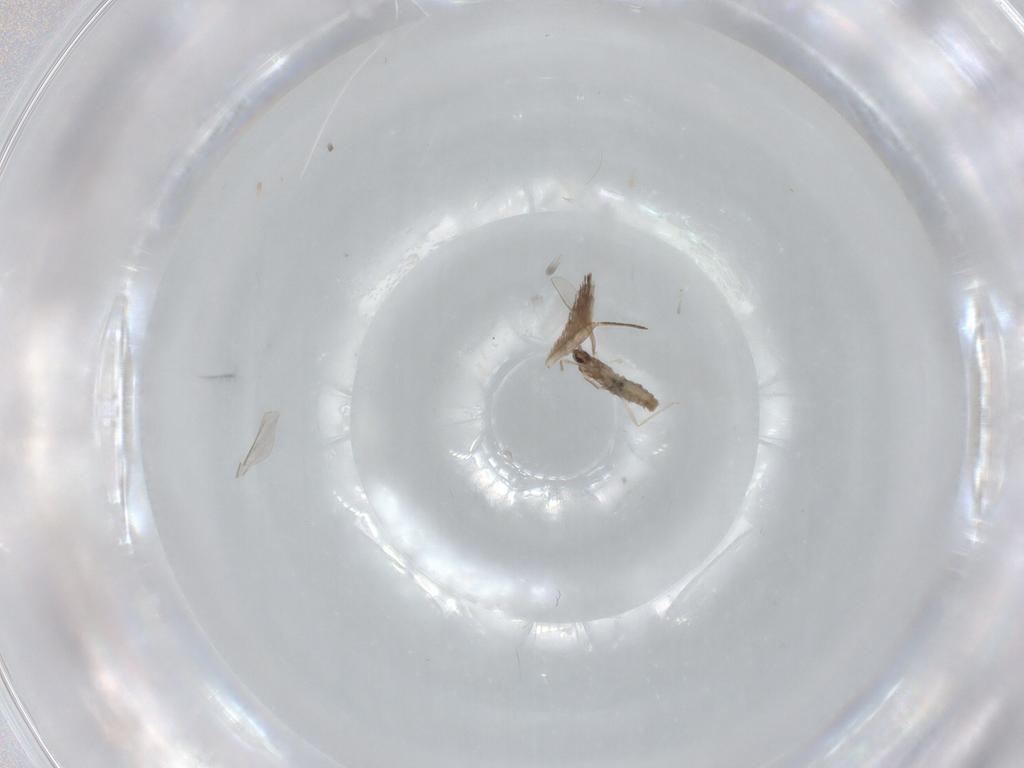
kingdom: Animalia
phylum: Arthropoda
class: Insecta
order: Diptera
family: Cecidomyiidae
